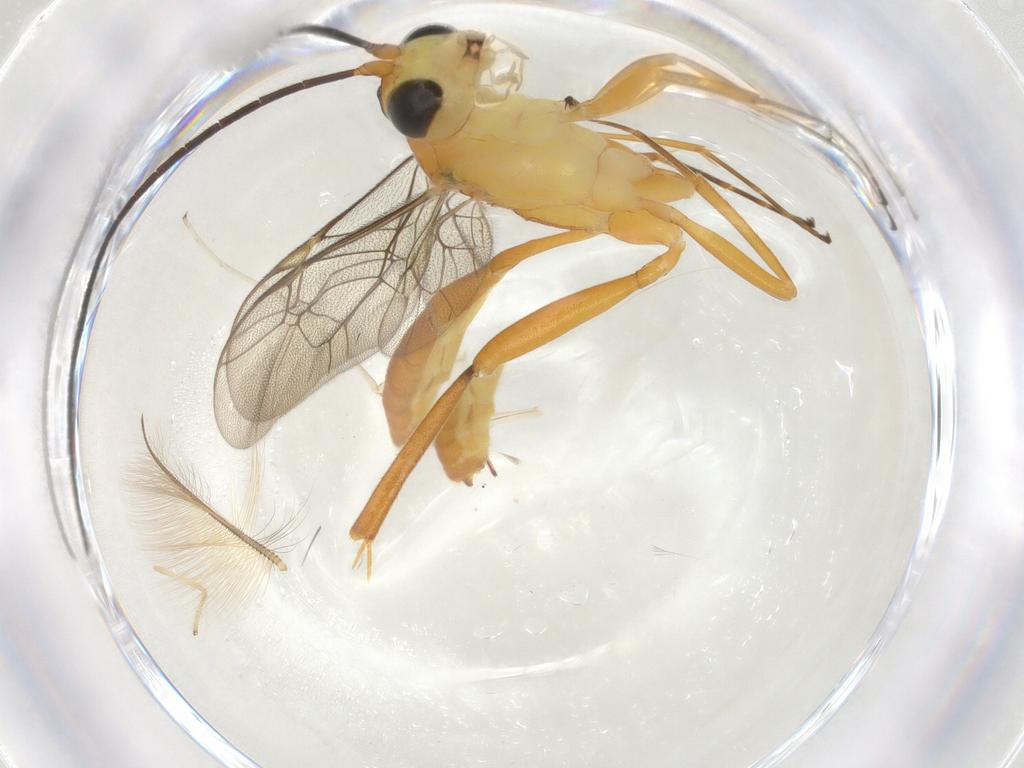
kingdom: Animalia
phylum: Arthropoda
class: Insecta
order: Hymenoptera
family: Ichneumonidae
